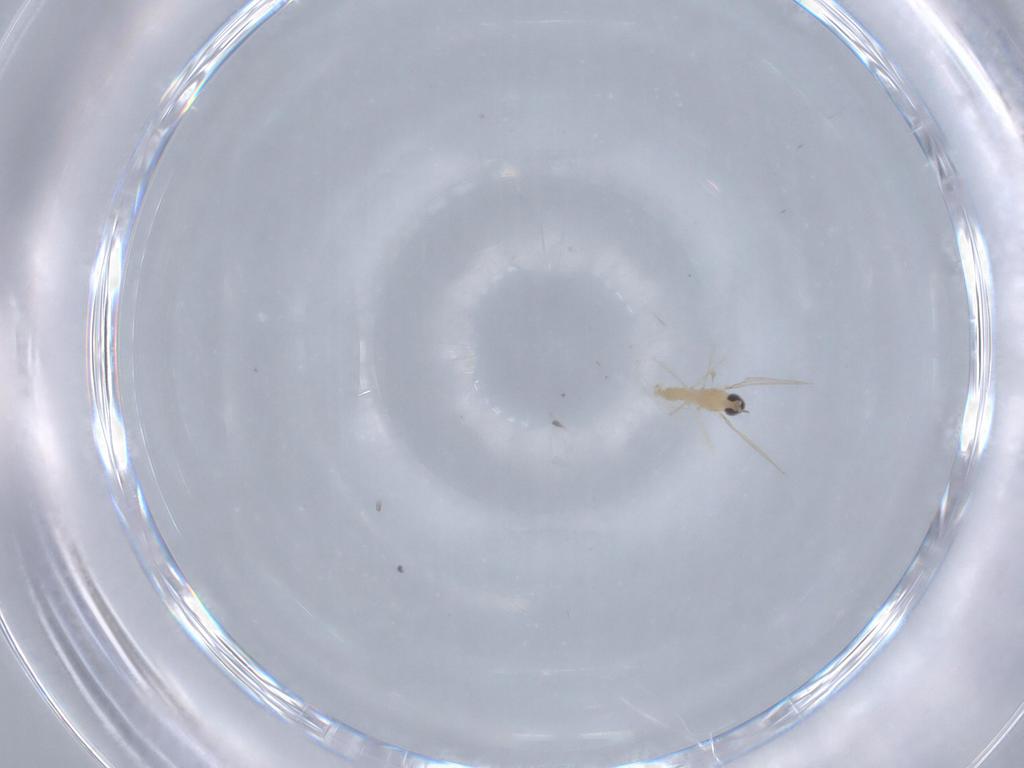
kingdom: Animalia
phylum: Arthropoda
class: Insecta
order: Diptera
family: Cecidomyiidae
